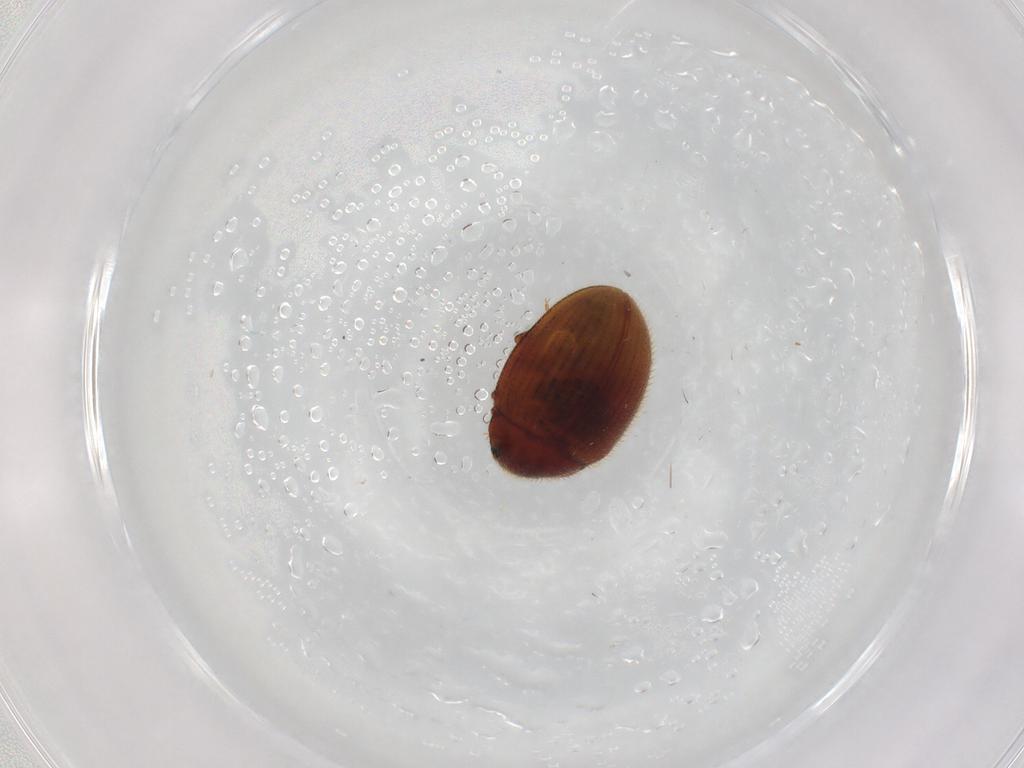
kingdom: Animalia
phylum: Arthropoda
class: Insecta
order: Coleoptera
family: Euxestidae
